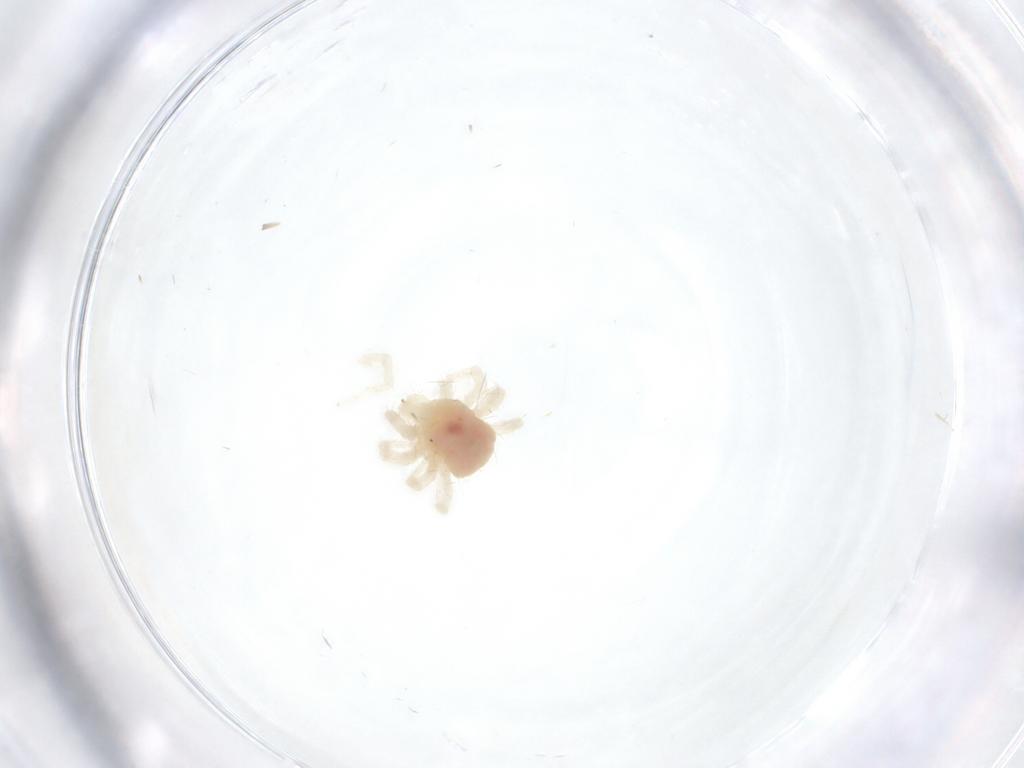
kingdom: Animalia
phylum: Arthropoda
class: Arachnida
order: Trombidiformes
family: Anystidae
